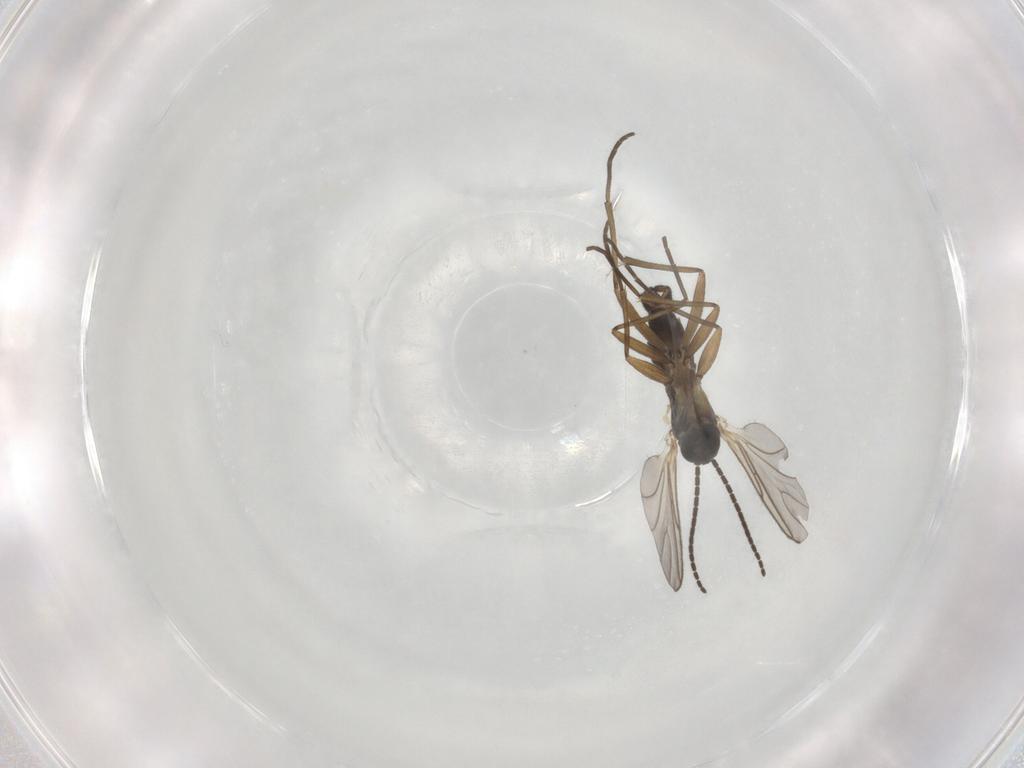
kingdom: Animalia
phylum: Arthropoda
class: Insecta
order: Diptera
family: Sciaridae
